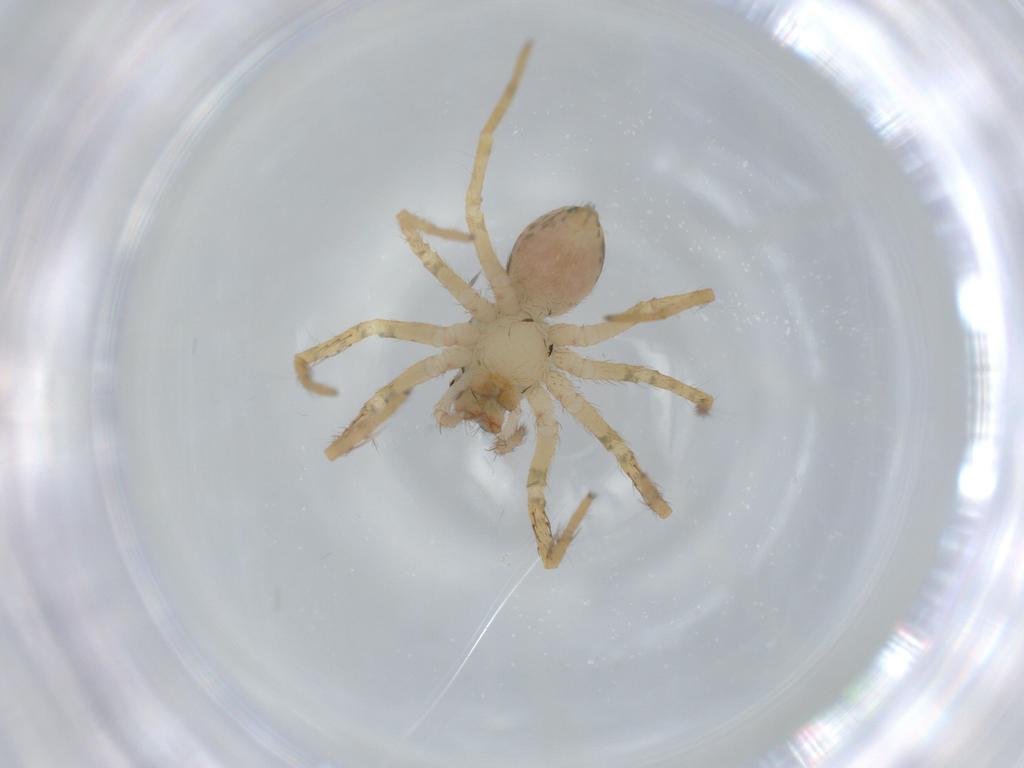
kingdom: Animalia
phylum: Arthropoda
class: Arachnida
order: Araneae
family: Trechaleidae
